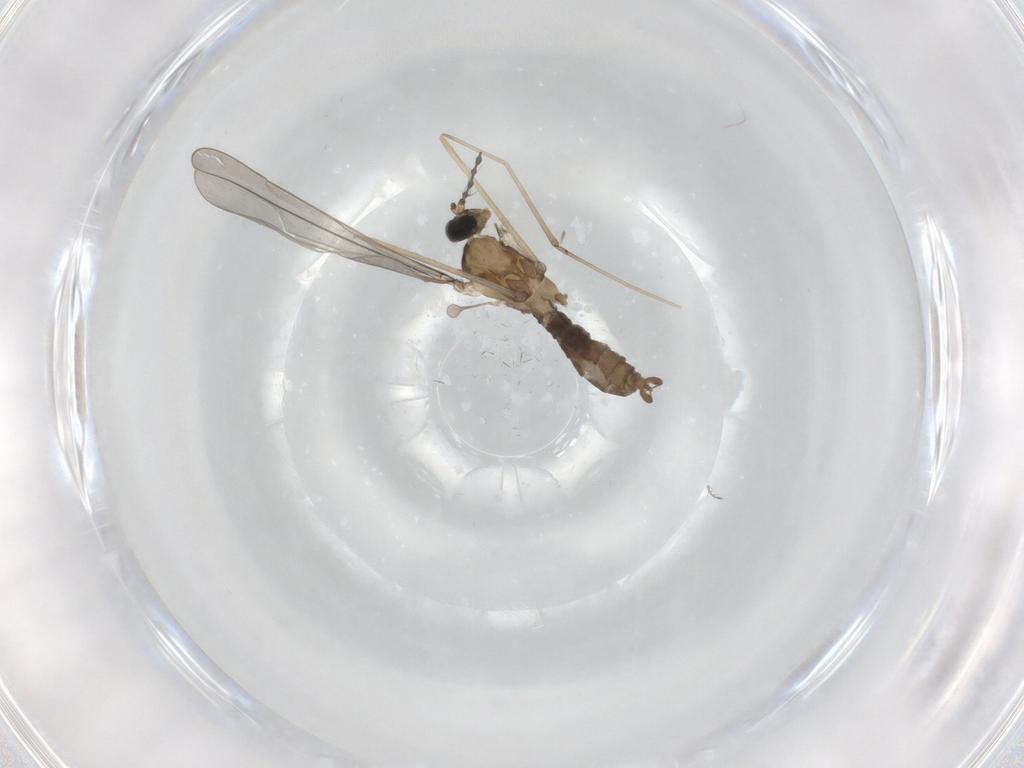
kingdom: Animalia
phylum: Arthropoda
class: Insecta
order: Diptera
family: Cecidomyiidae
